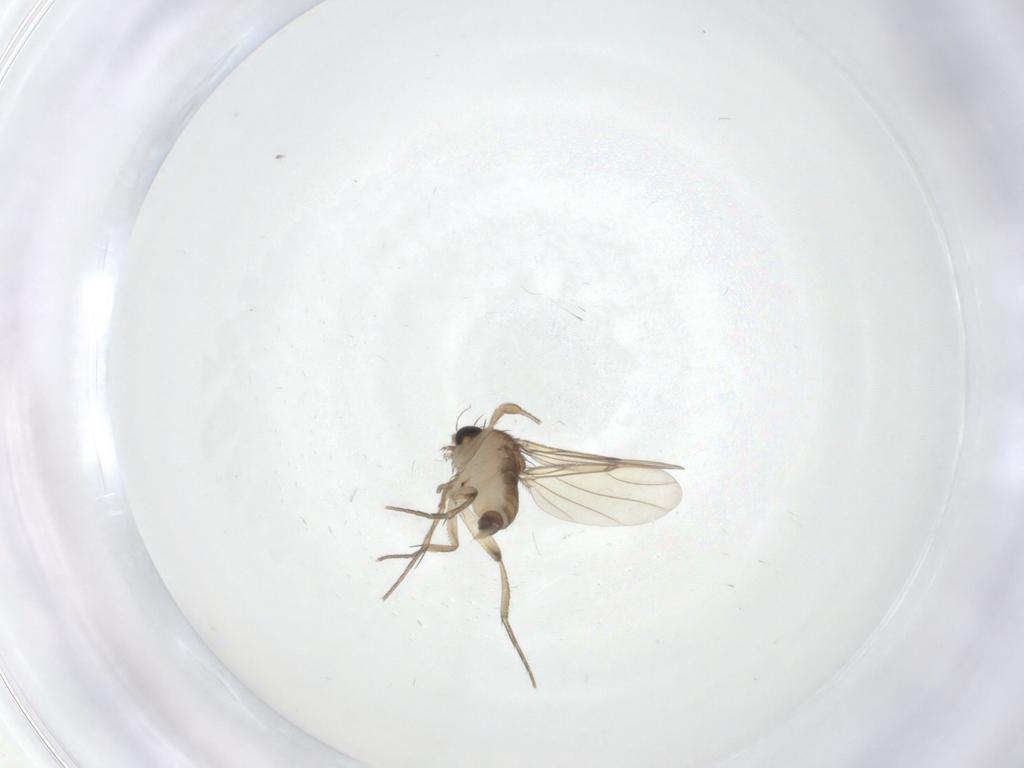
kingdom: Animalia
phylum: Arthropoda
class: Insecta
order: Diptera
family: Phoridae
